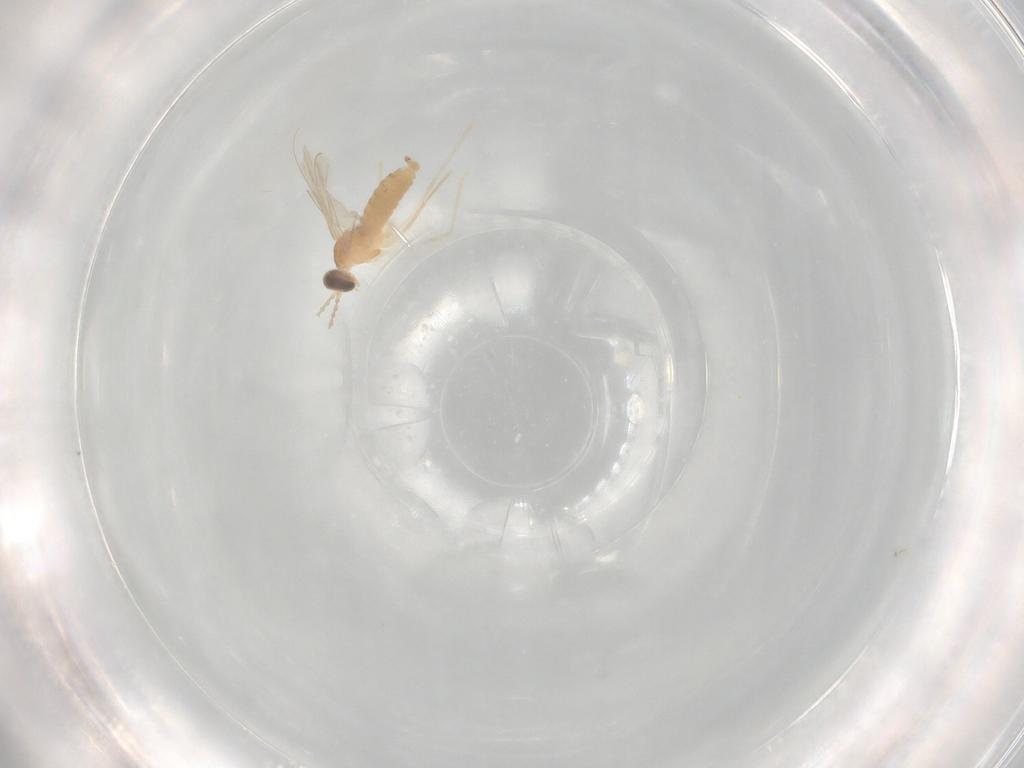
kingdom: Animalia
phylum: Arthropoda
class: Insecta
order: Diptera
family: Cecidomyiidae
